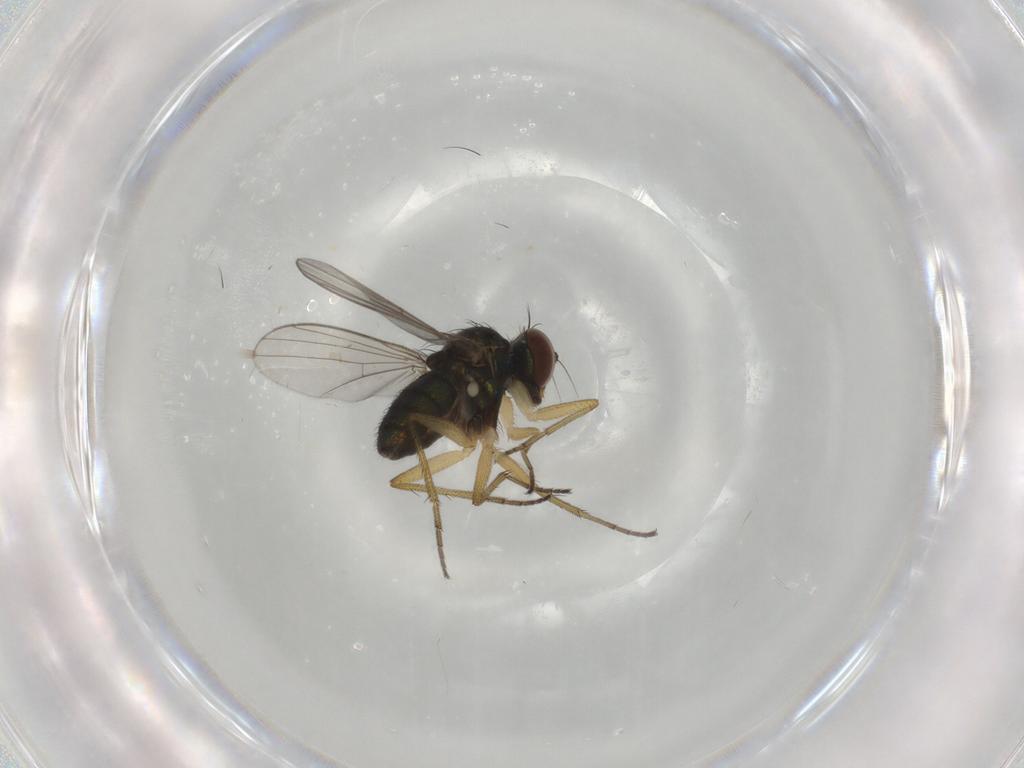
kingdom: Animalia
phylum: Arthropoda
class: Insecta
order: Diptera
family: Dolichopodidae
